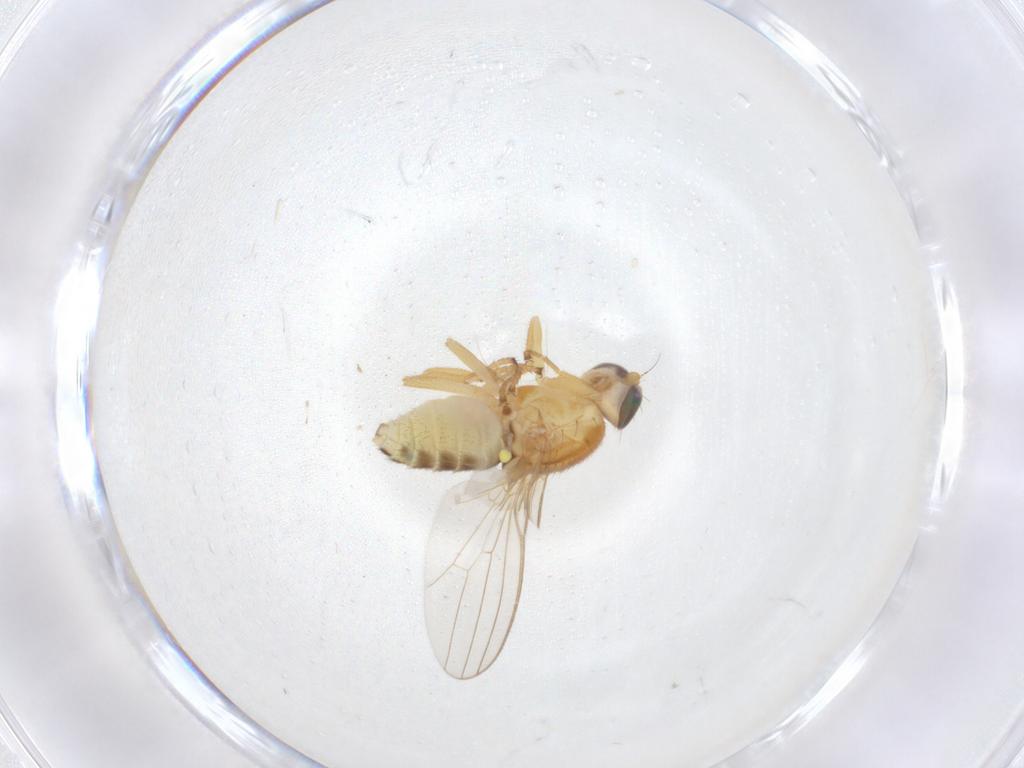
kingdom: Animalia
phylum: Arthropoda
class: Insecta
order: Diptera
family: Chyromyidae
